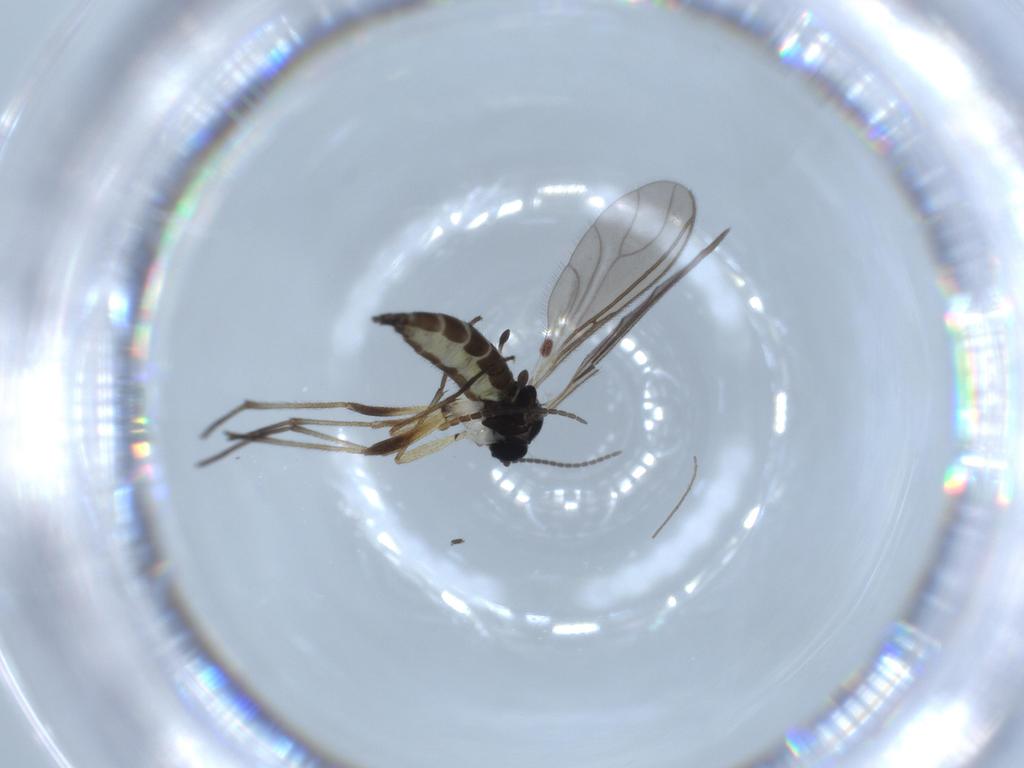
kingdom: Animalia
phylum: Arthropoda
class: Insecta
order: Diptera
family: Sciaridae
